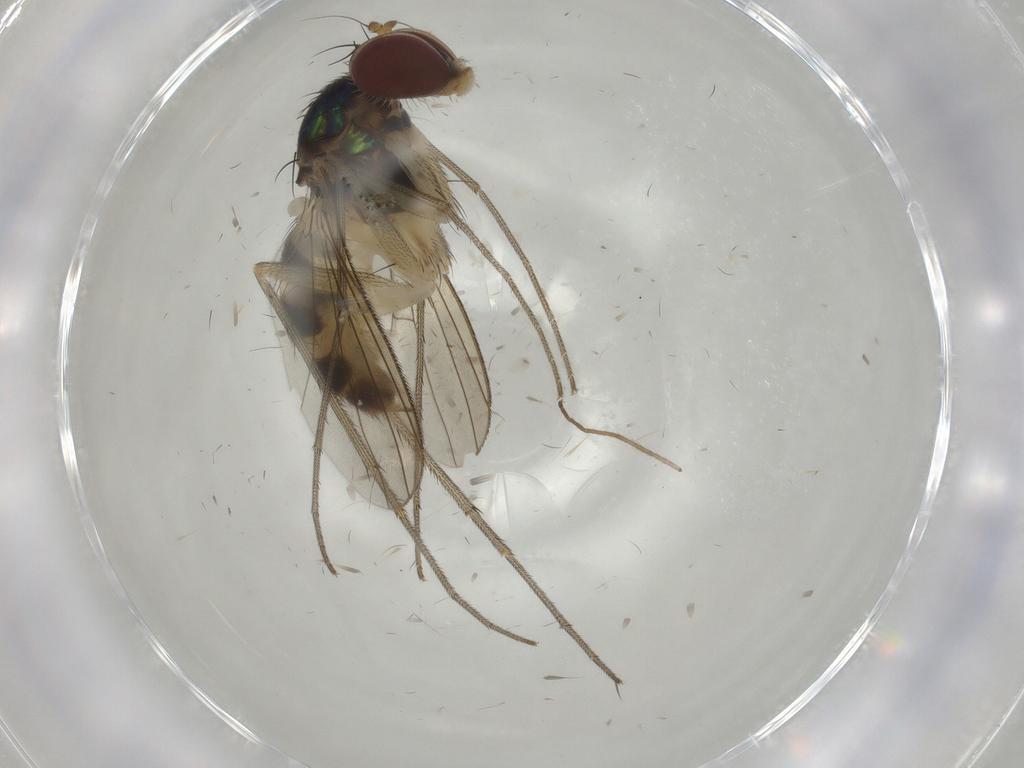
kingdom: Animalia
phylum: Arthropoda
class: Insecta
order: Diptera
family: Dolichopodidae
